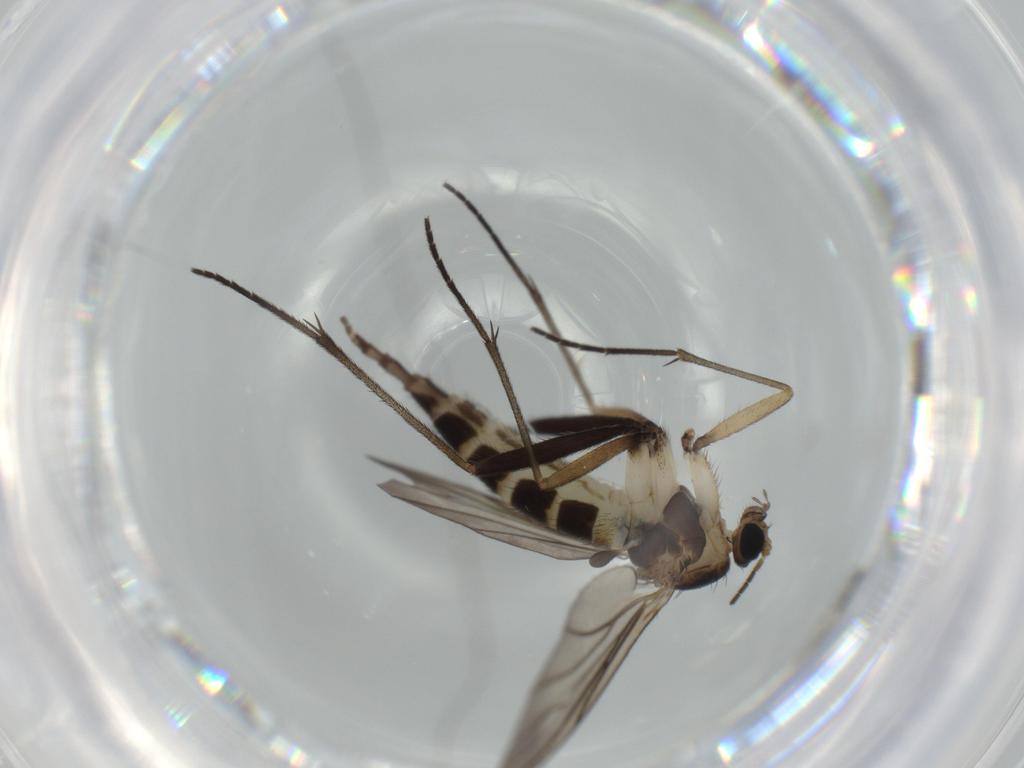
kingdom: Animalia
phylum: Arthropoda
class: Insecta
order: Diptera
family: Sciaridae
